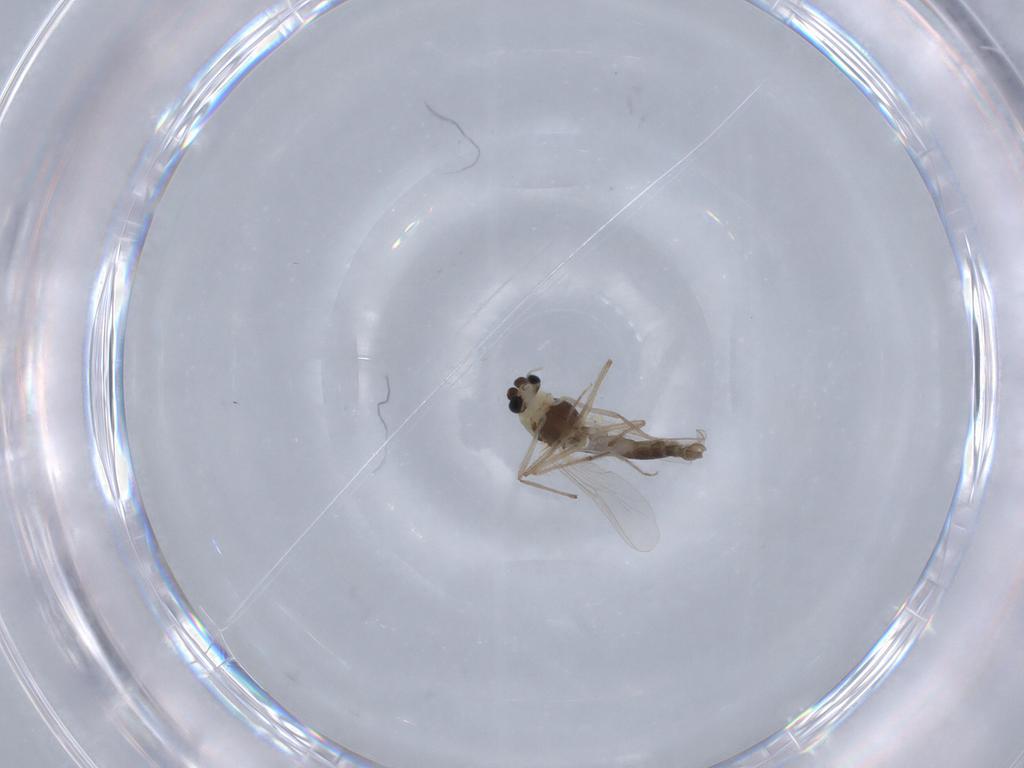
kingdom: Animalia
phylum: Arthropoda
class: Insecta
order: Diptera
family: Chironomidae
